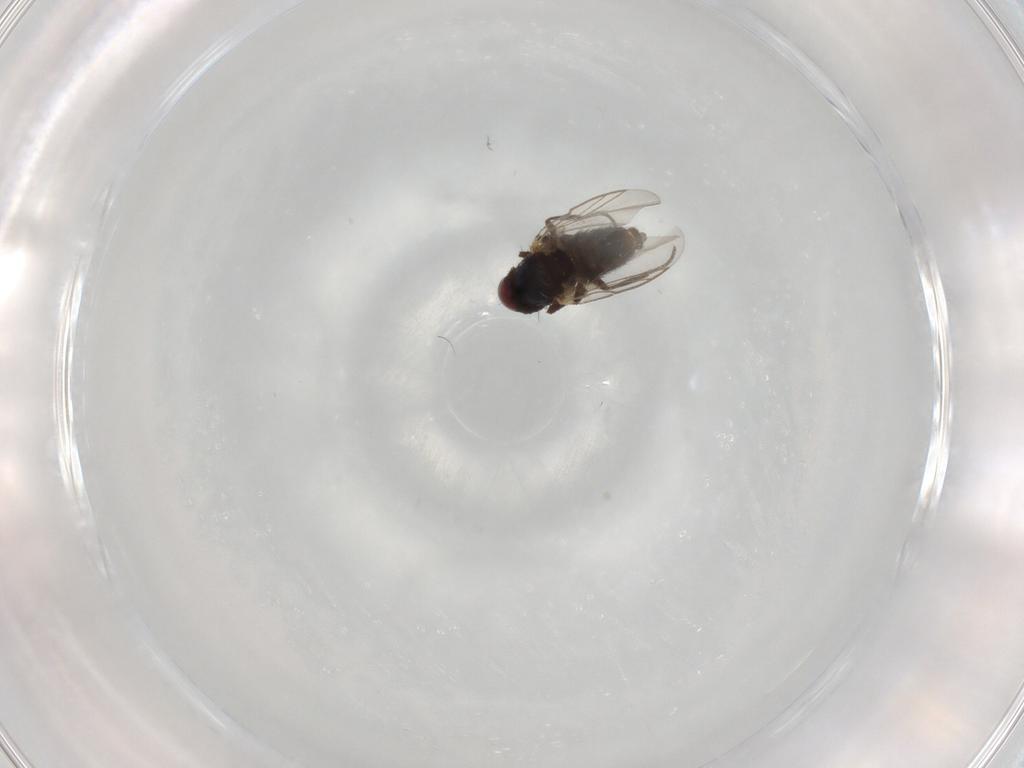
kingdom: Animalia
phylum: Arthropoda
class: Insecta
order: Diptera
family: Agromyzidae
